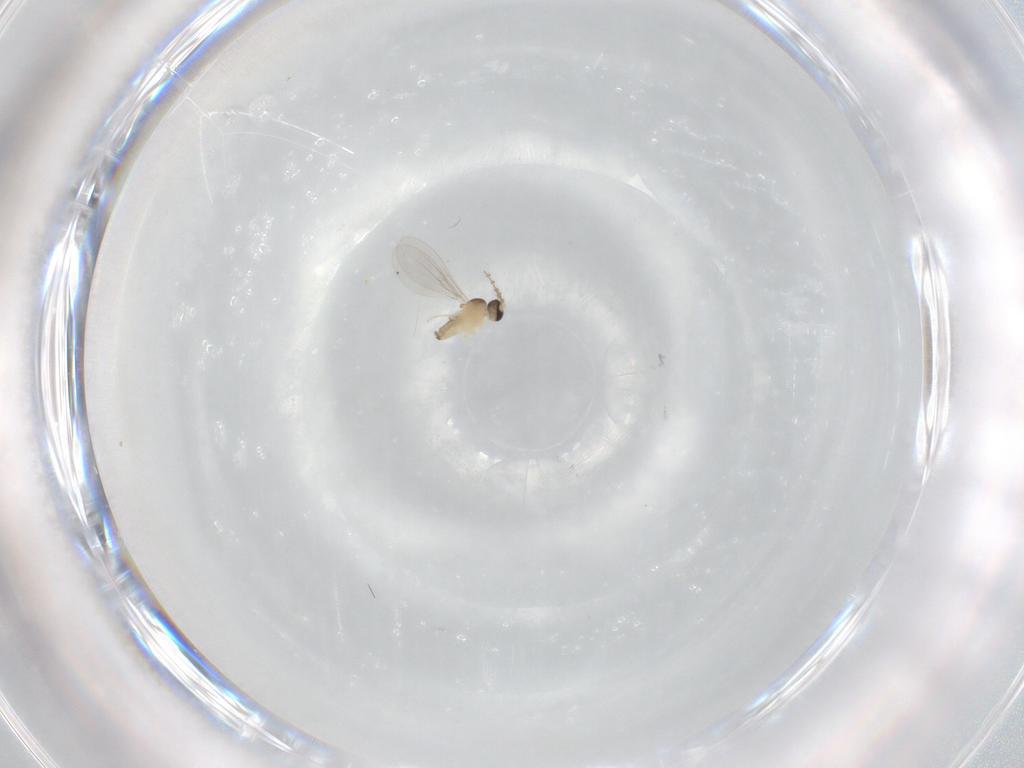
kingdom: Animalia
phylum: Arthropoda
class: Insecta
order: Diptera
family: Cecidomyiidae
